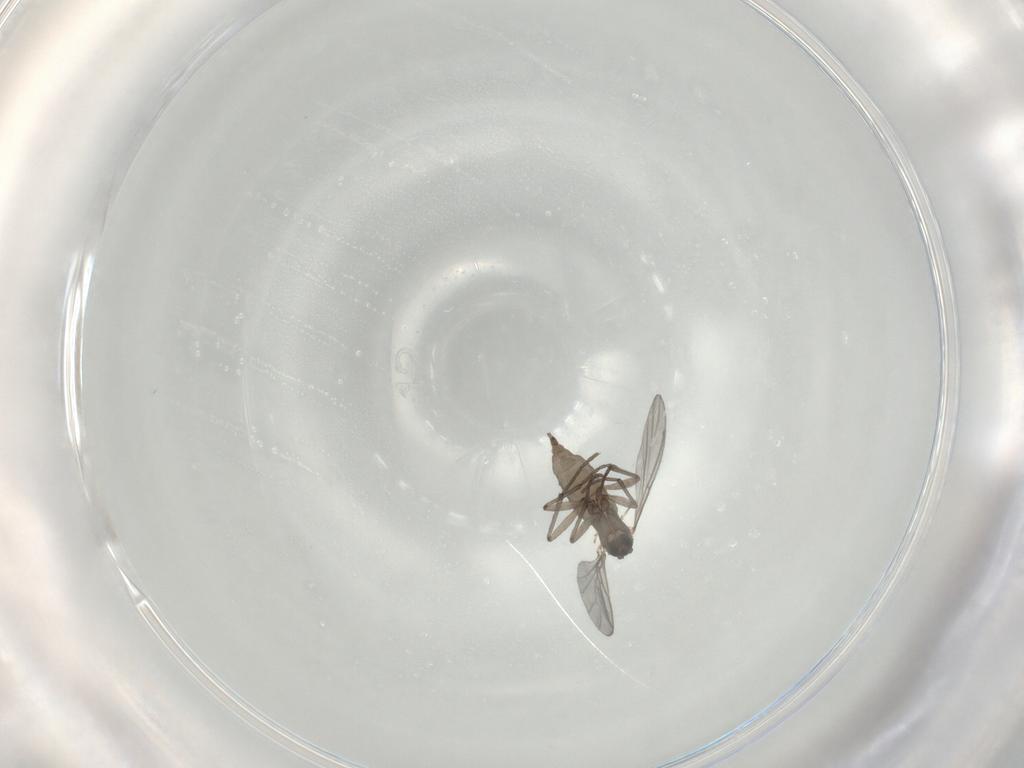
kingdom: Animalia
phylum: Arthropoda
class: Insecta
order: Diptera
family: Sciaridae
